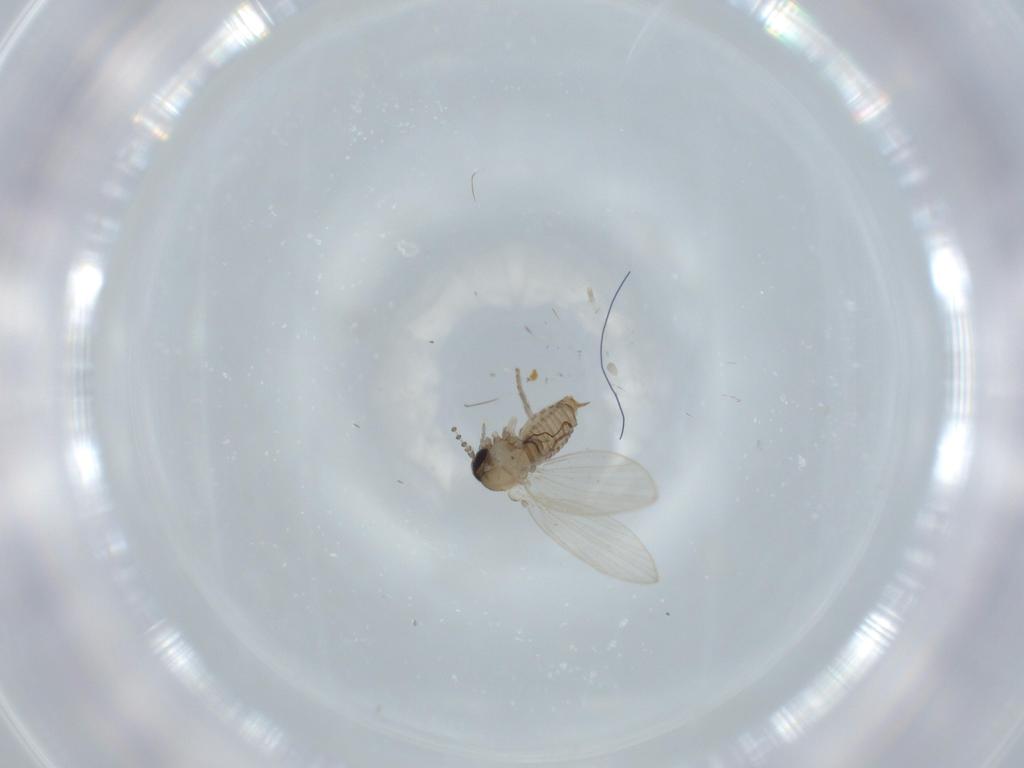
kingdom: Animalia
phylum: Arthropoda
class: Insecta
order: Diptera
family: Psychodidae
